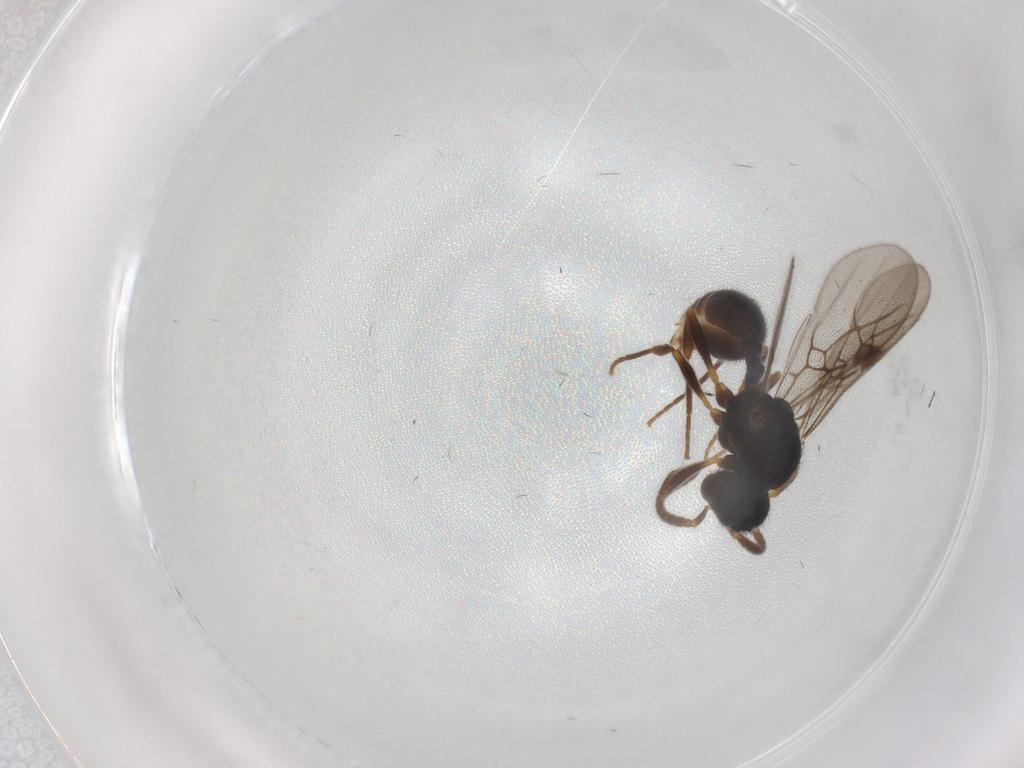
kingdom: Animalia
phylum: Arthropoda
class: Insecta
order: Hymenoptera
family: Formicidae
